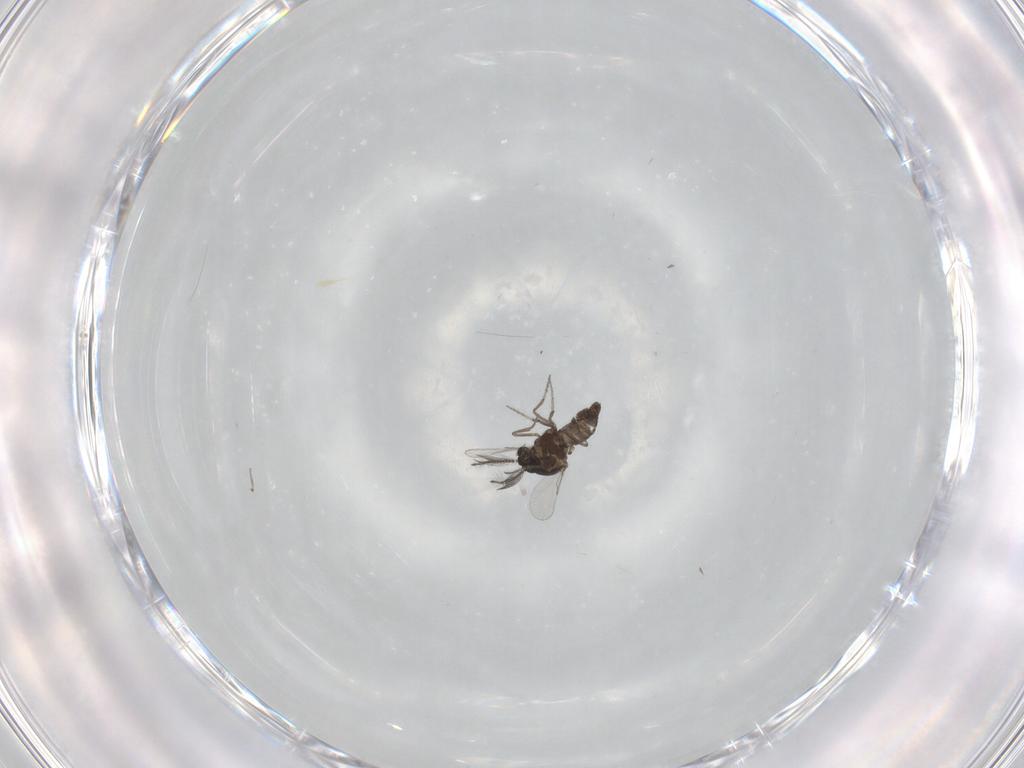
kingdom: Animalia
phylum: Arthropoda
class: Insecta
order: Diptera
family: Ceratopogonidae
